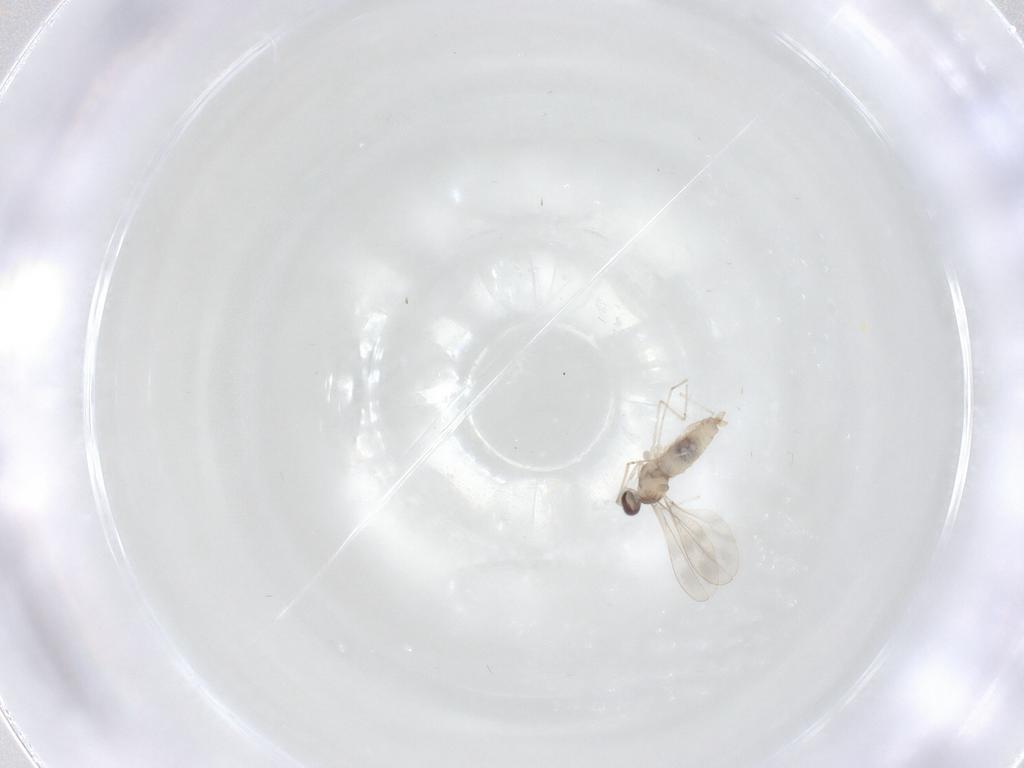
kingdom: Animalia
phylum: Arthropoda
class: Insecta
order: Diptera
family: Cecidomyiidae
